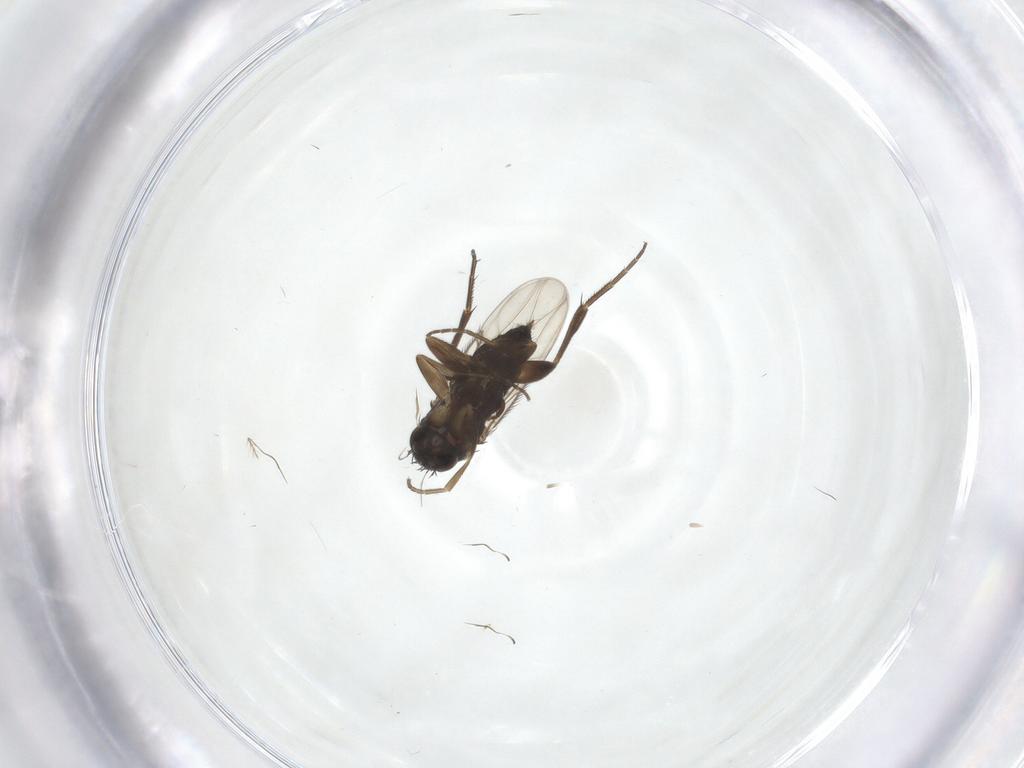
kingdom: Animalia
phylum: Arthropoda
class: Insecta
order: Diptera
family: Phoridae
